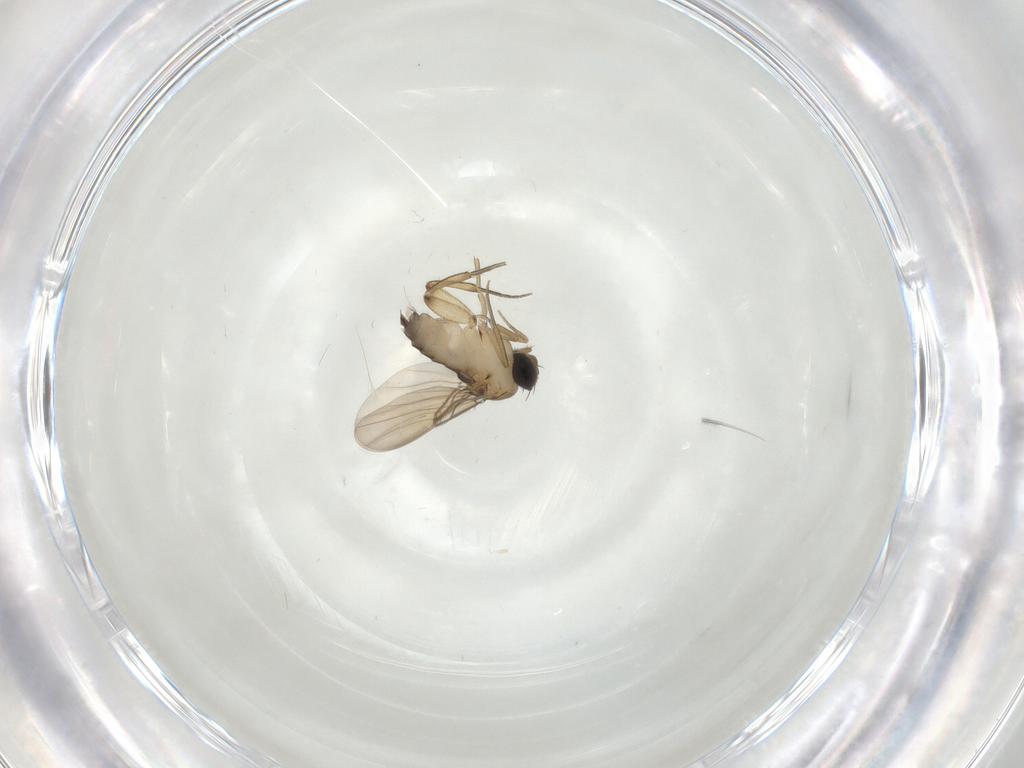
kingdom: Animalia
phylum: Arthropoda
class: Insecta
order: Diptera
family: Phoridae
